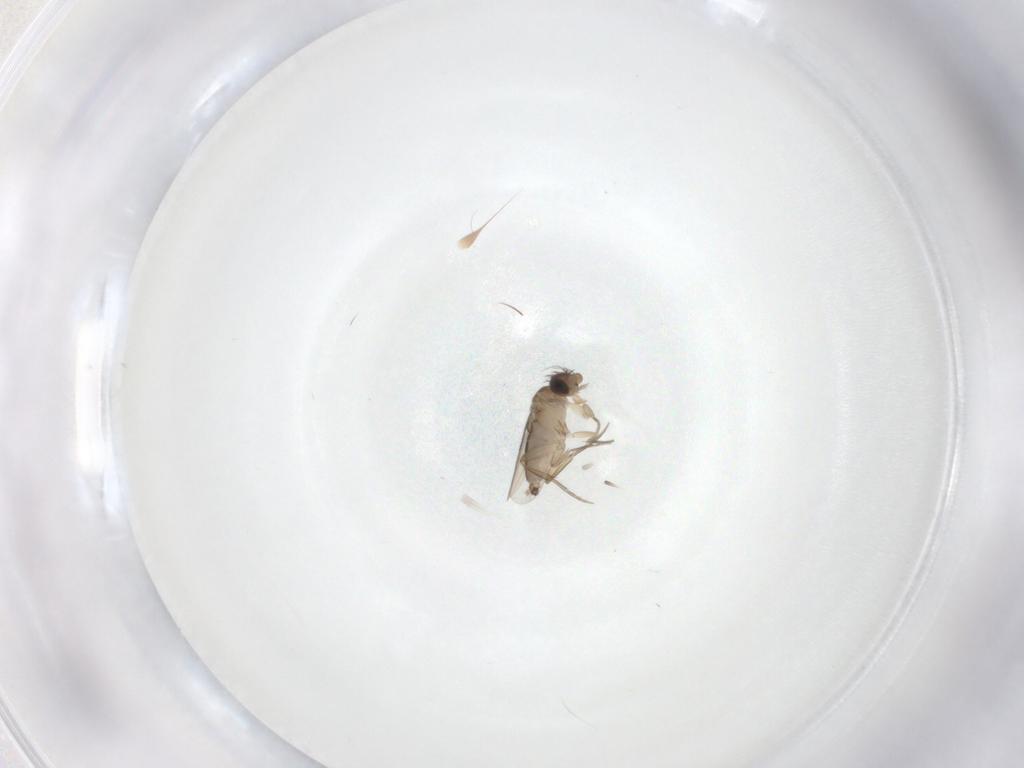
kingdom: Animalia
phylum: Arthropoda
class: Insecta
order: Diptera
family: Phoridae
